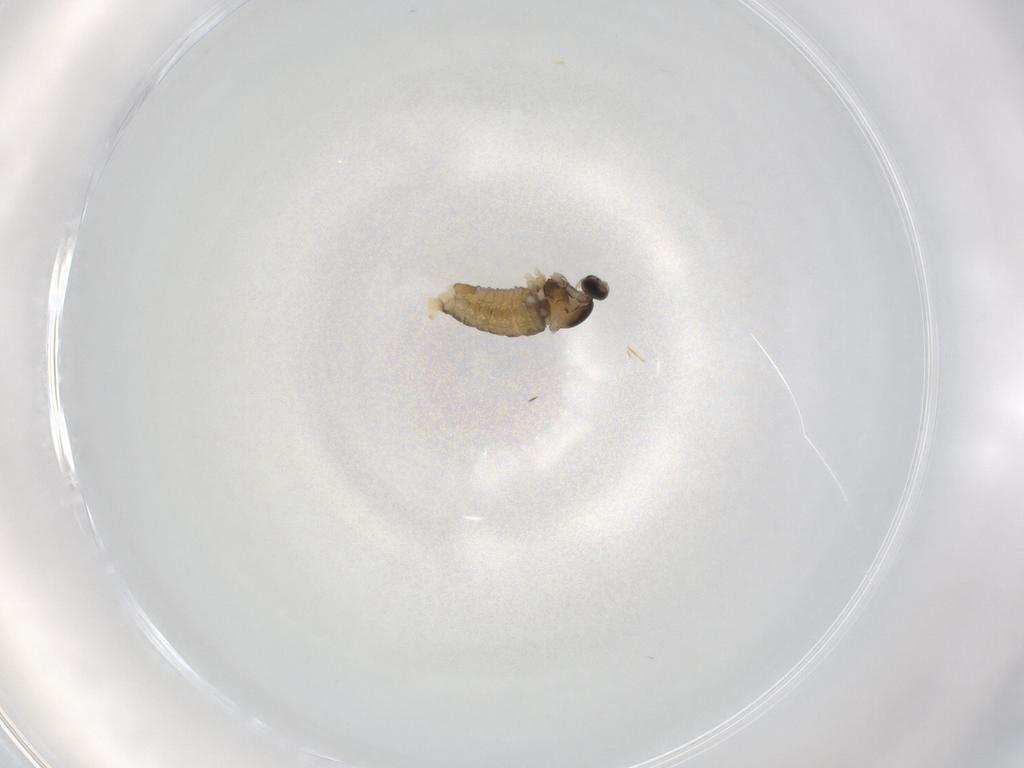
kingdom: Animalia
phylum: Arthropoda
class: Insecta
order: Diptera
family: Cecidomyiidae
